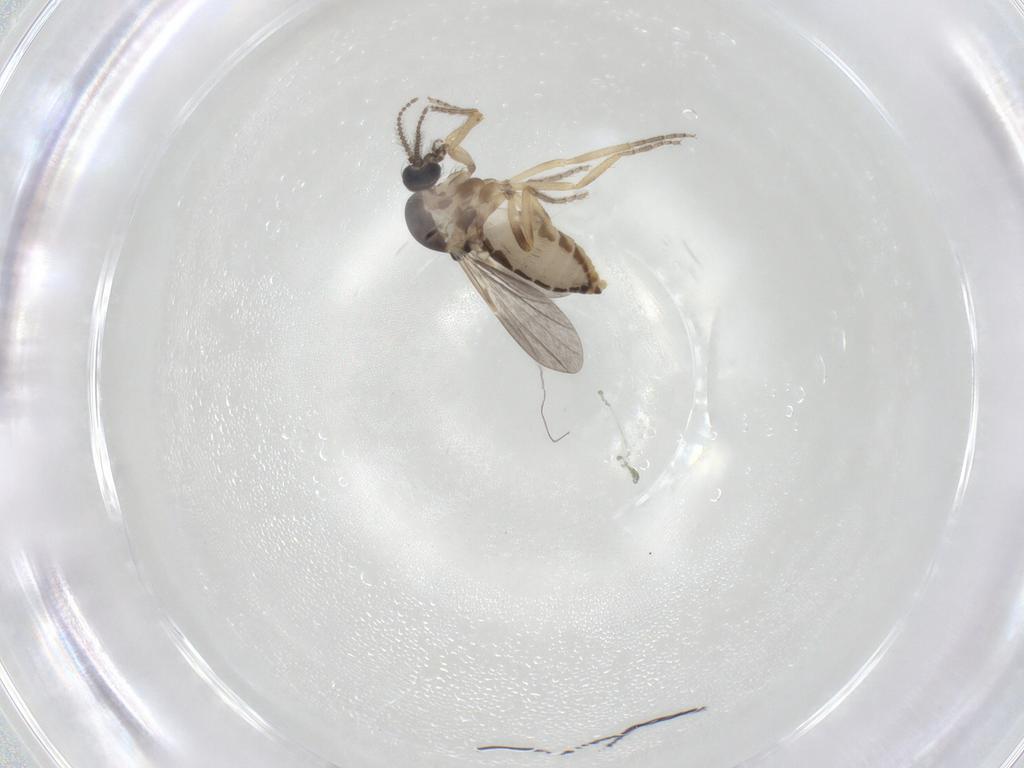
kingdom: Animalia
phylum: Arthropoda
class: Insecta
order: Diptera
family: Ceratopogonidae
